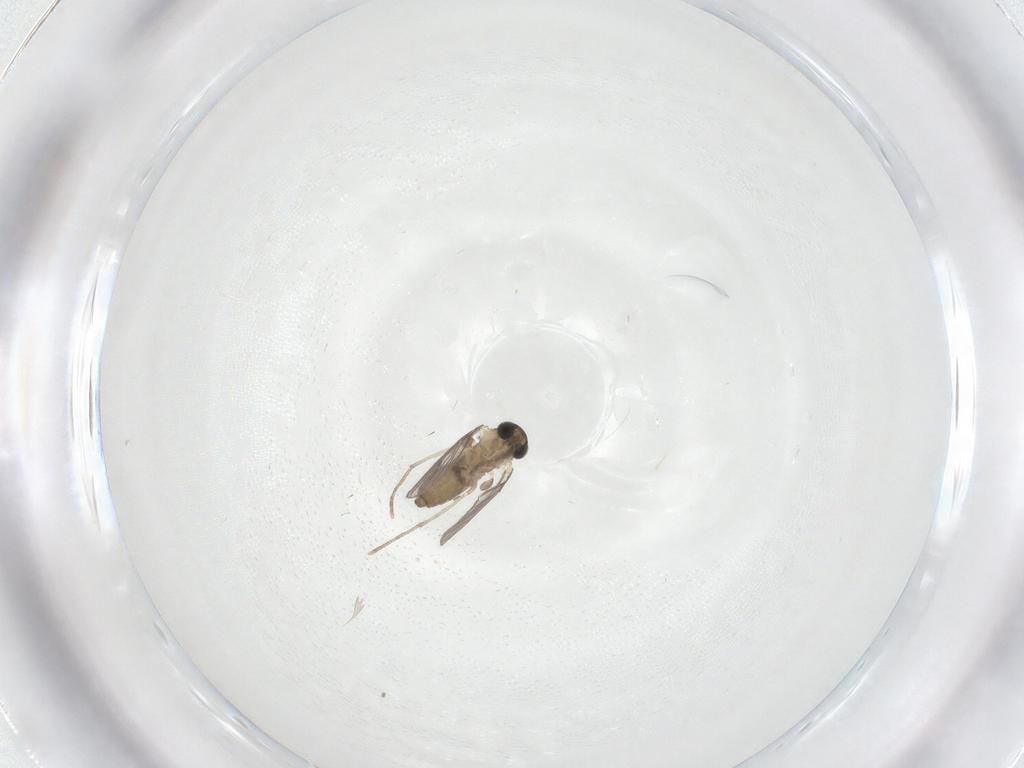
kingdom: Animalia
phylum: Arthropoda
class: Insecta
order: Diptera
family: Chironomidae
